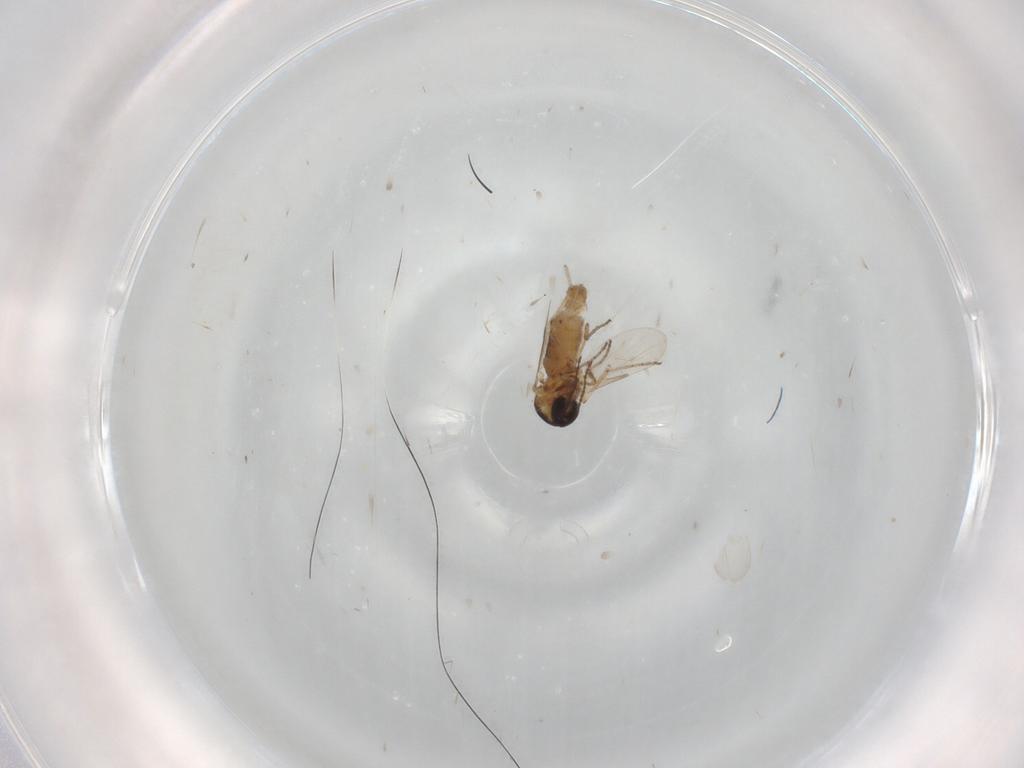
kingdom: Animalia
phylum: Arthropoda
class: Insecta
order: Diptera
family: Ceratopogonidae
